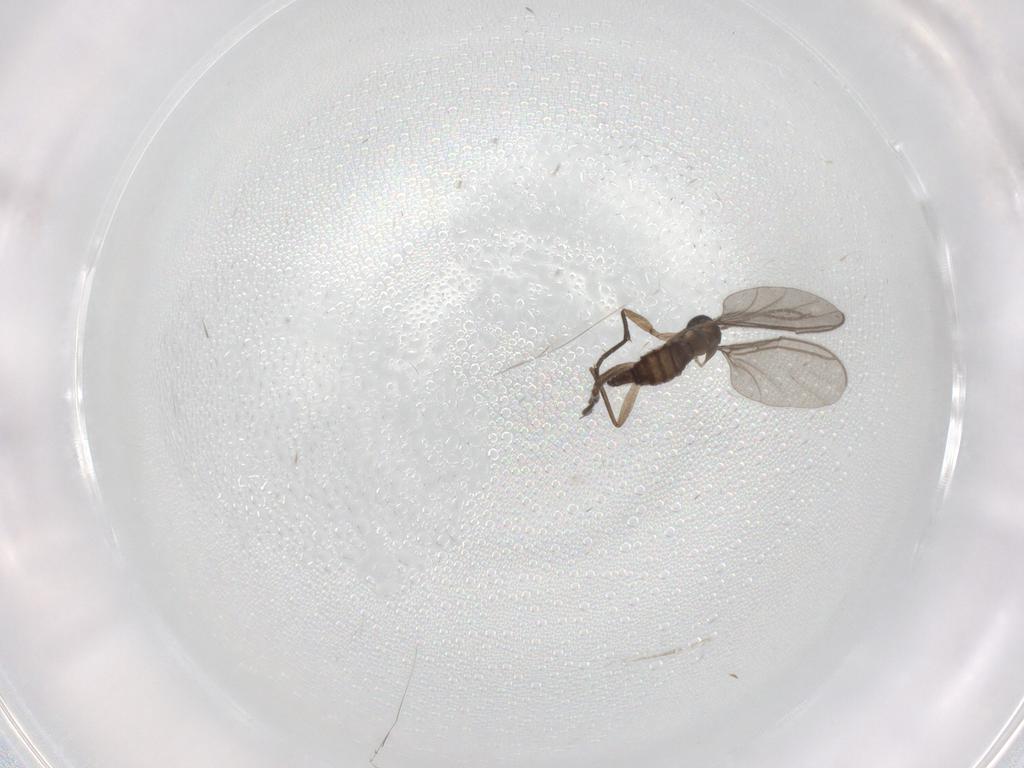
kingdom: Animalia
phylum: Arthropoda
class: Insecta
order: Diptera
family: Sciaridae
